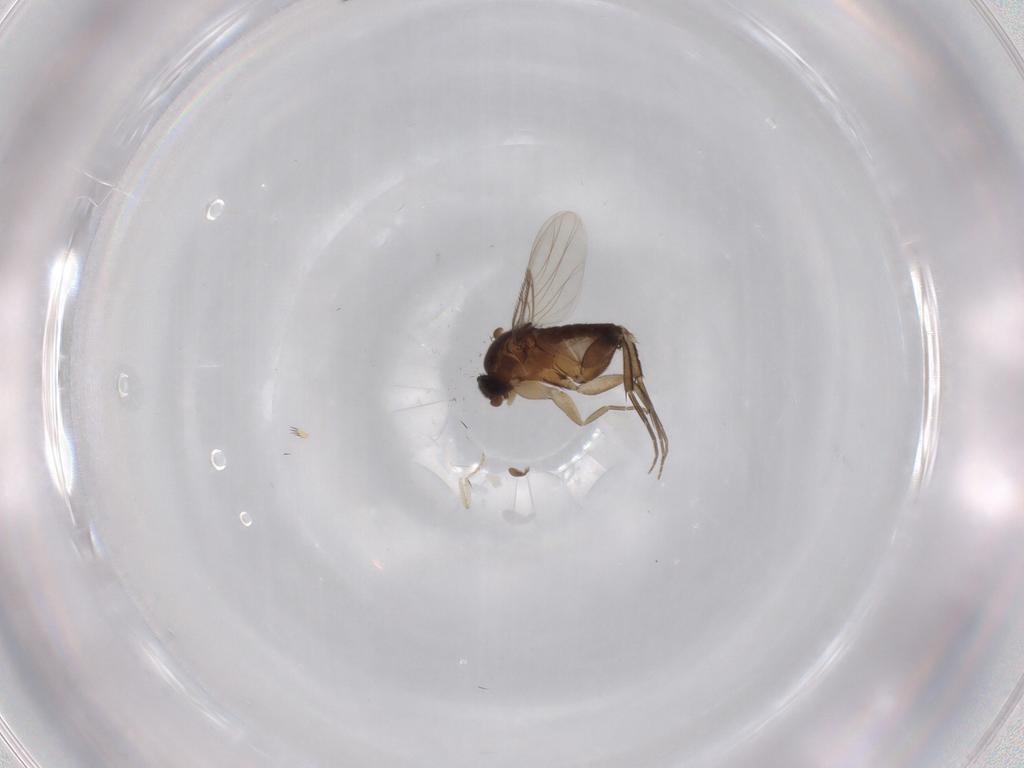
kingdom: Animalia
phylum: Arthropoda
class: Insecta
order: Diptera
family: Phoridae
